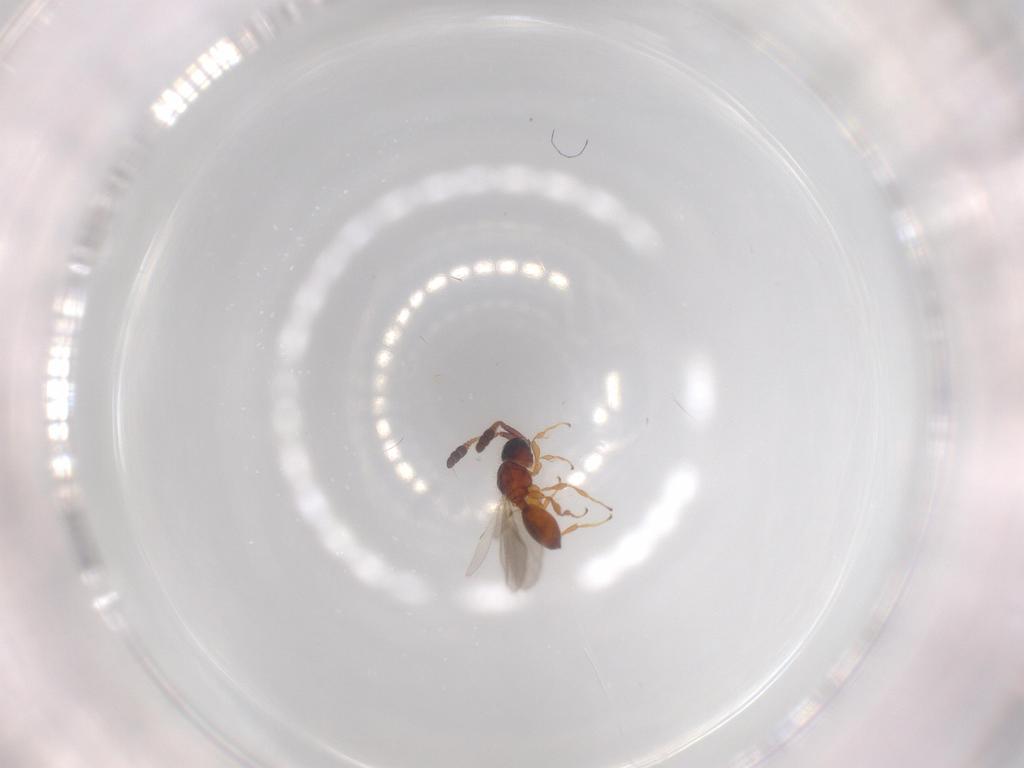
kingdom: Animalia
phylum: Arthropoda
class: Insecta
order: Hymenoptera
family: Diapriidae
